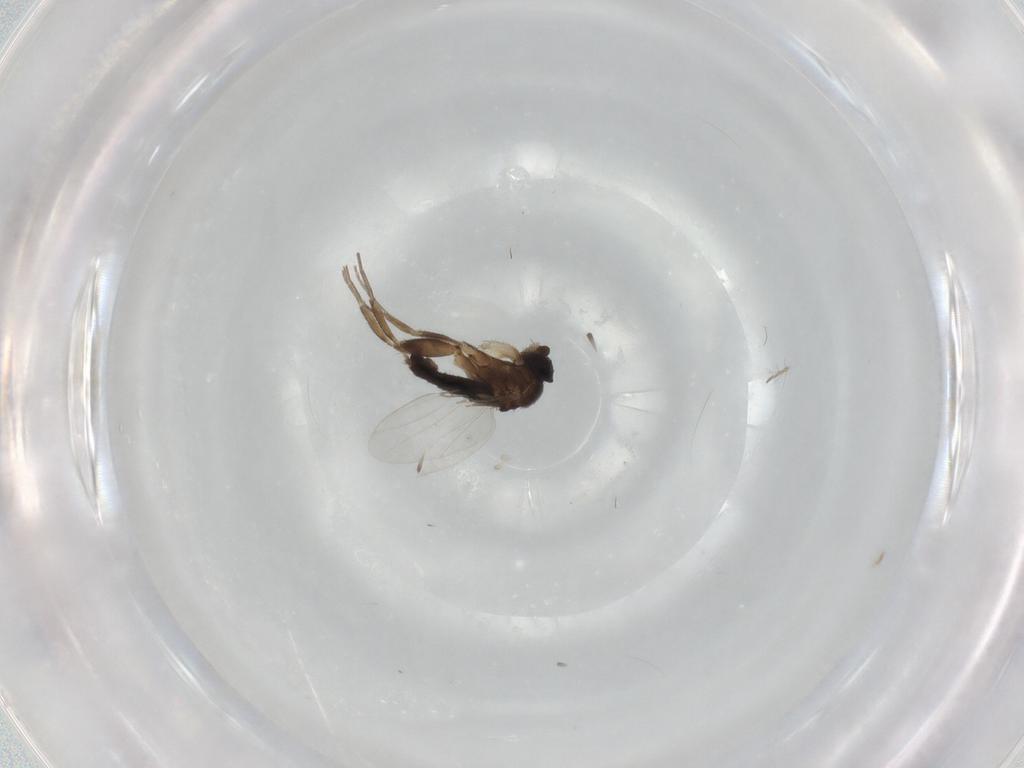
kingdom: Animalia
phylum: Arthropoda
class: Insecta
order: Diptera
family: Phoridae
